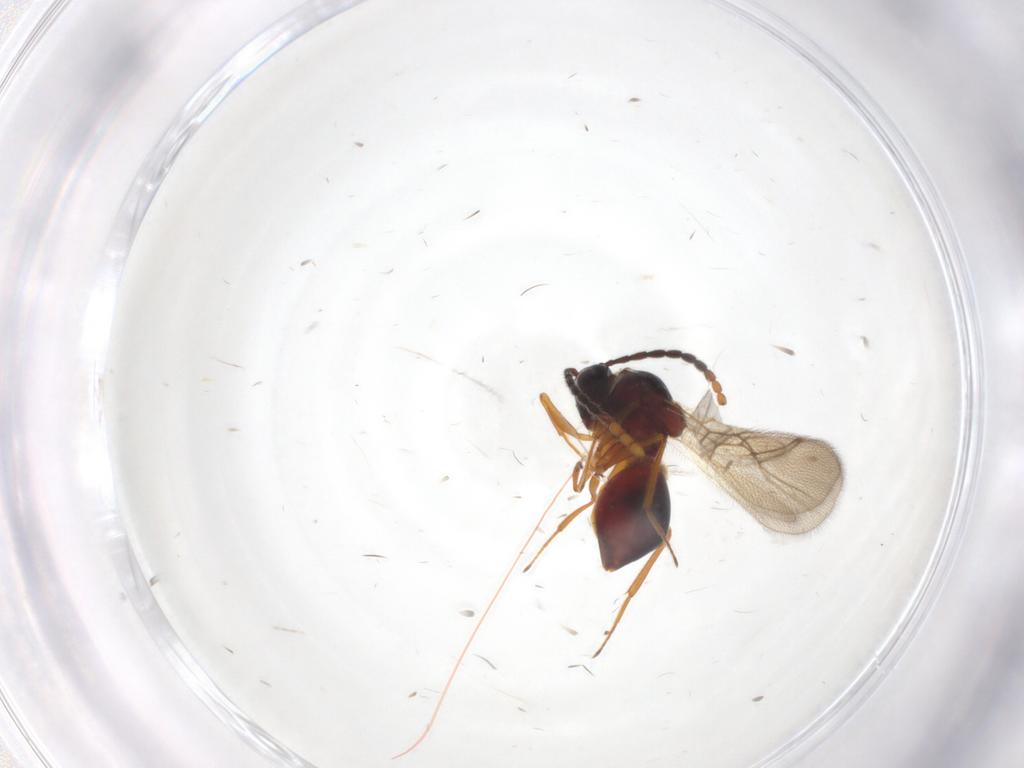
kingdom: Animalia
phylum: Arthropoda
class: Insecta
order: Hymenoptera
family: Figitidae
